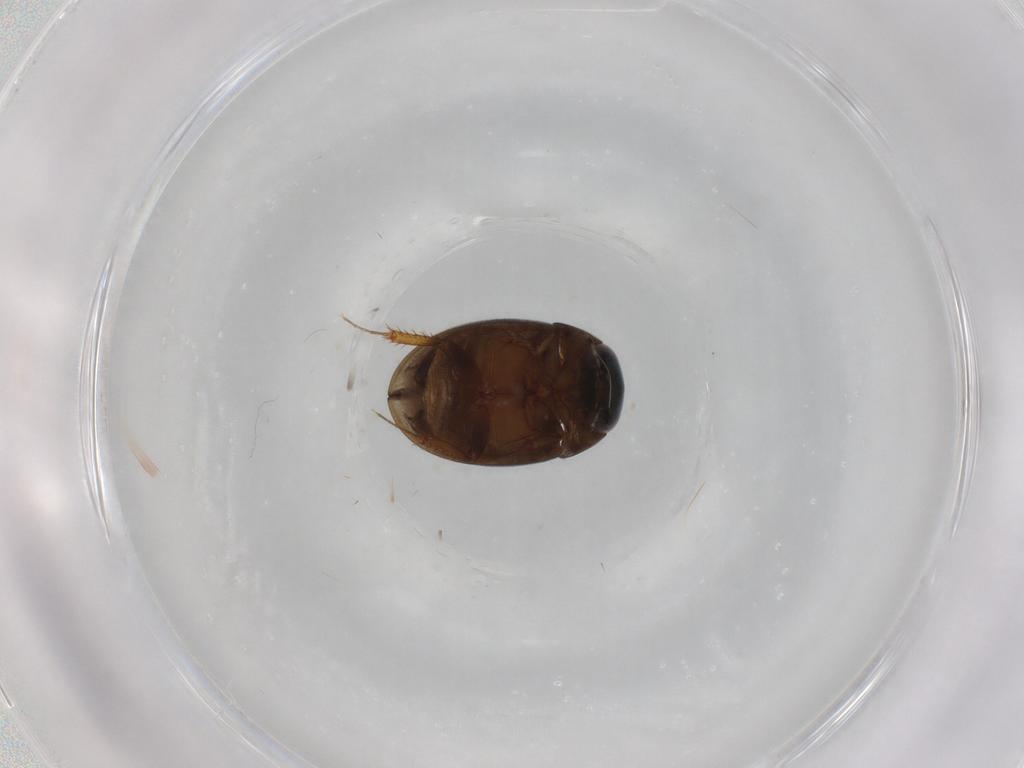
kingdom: Animalia
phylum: Arthropoda
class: Insecta
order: Coleoptera
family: Hydrophilidae
